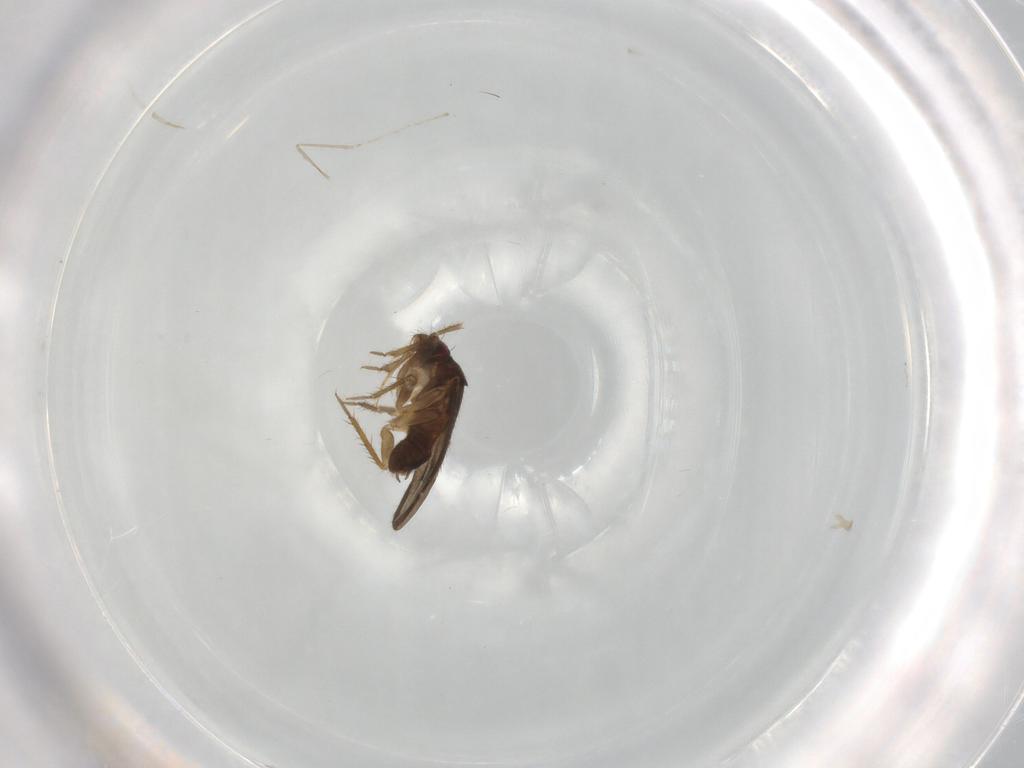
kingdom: Animalia
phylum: Arthropoda
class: Insecta
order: Hemiptera
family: Ceratocombidae
